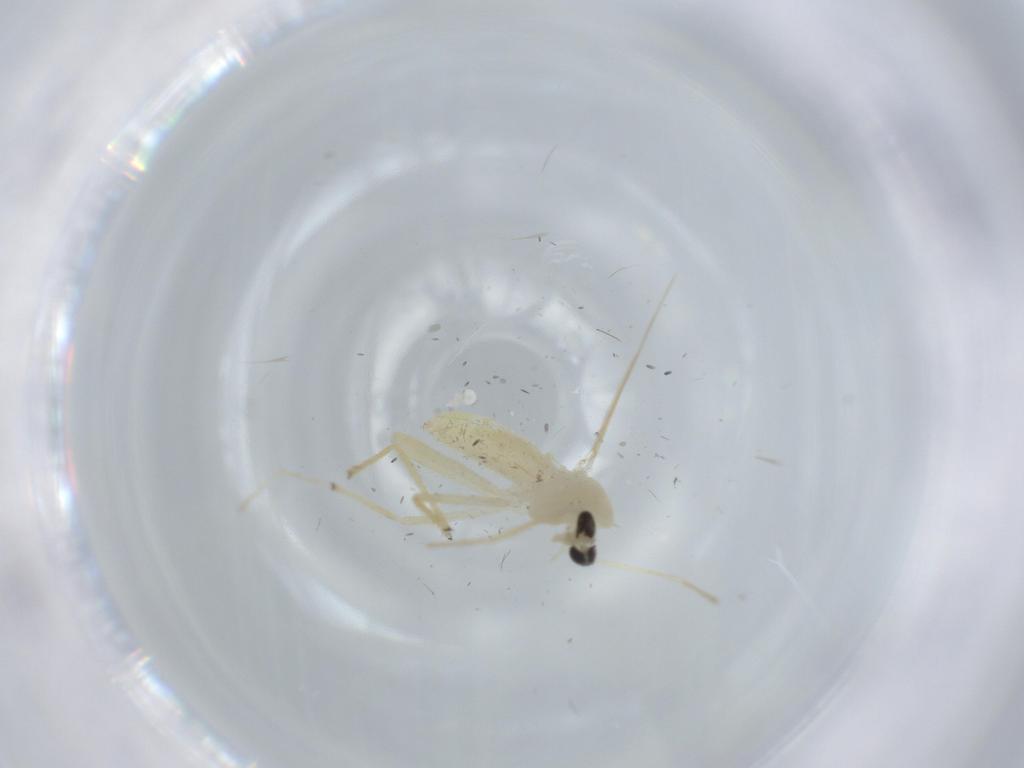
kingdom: Animalia
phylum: Arthropoda
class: Insecta
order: Diptera
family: Chironomidae
